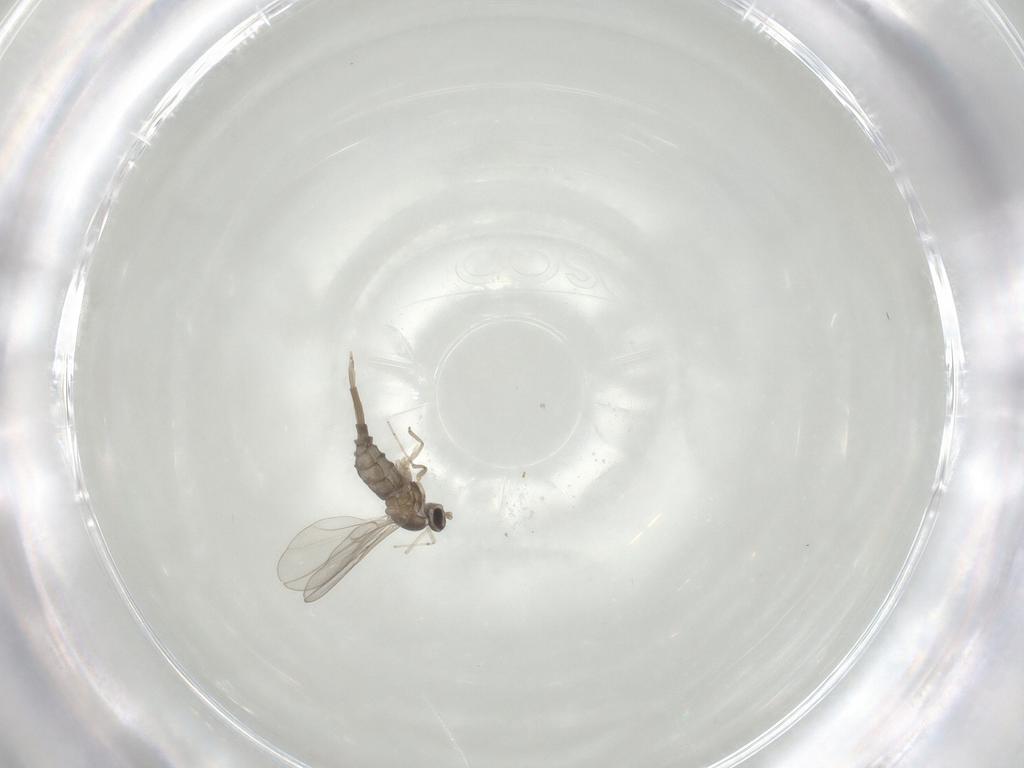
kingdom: Animalia
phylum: Arthropoda
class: Insecta
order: Diptera
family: Cecidomyiidae
